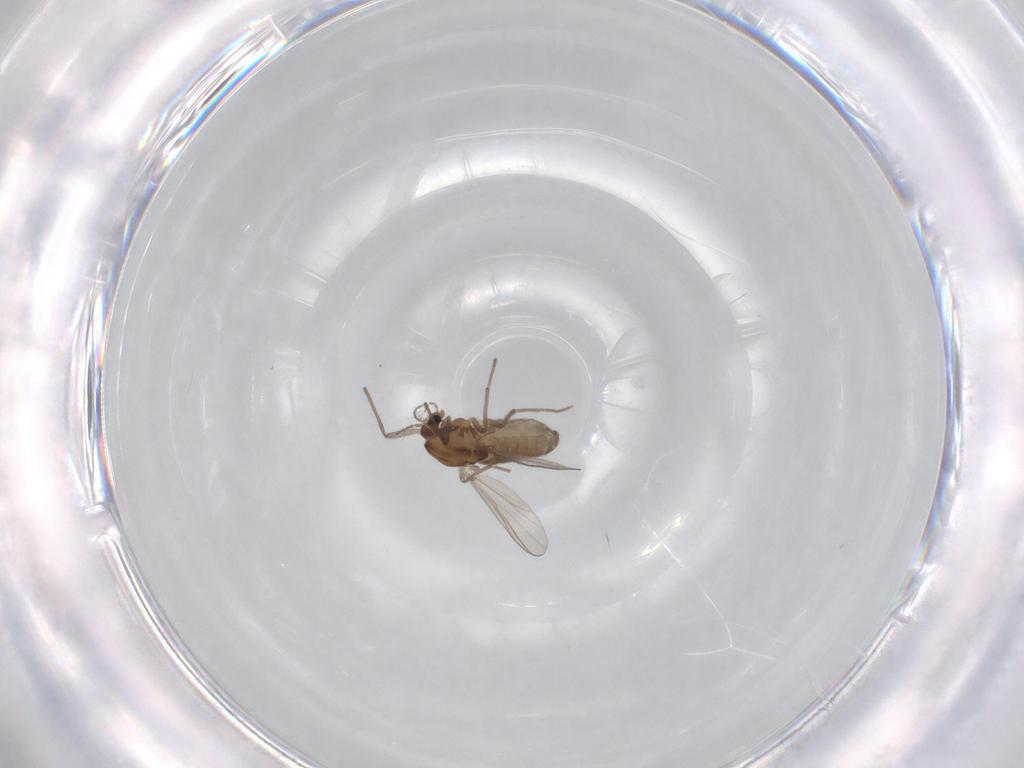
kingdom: Animalia
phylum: Arthropoda
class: Insecta
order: Diptera
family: Chironomidae
